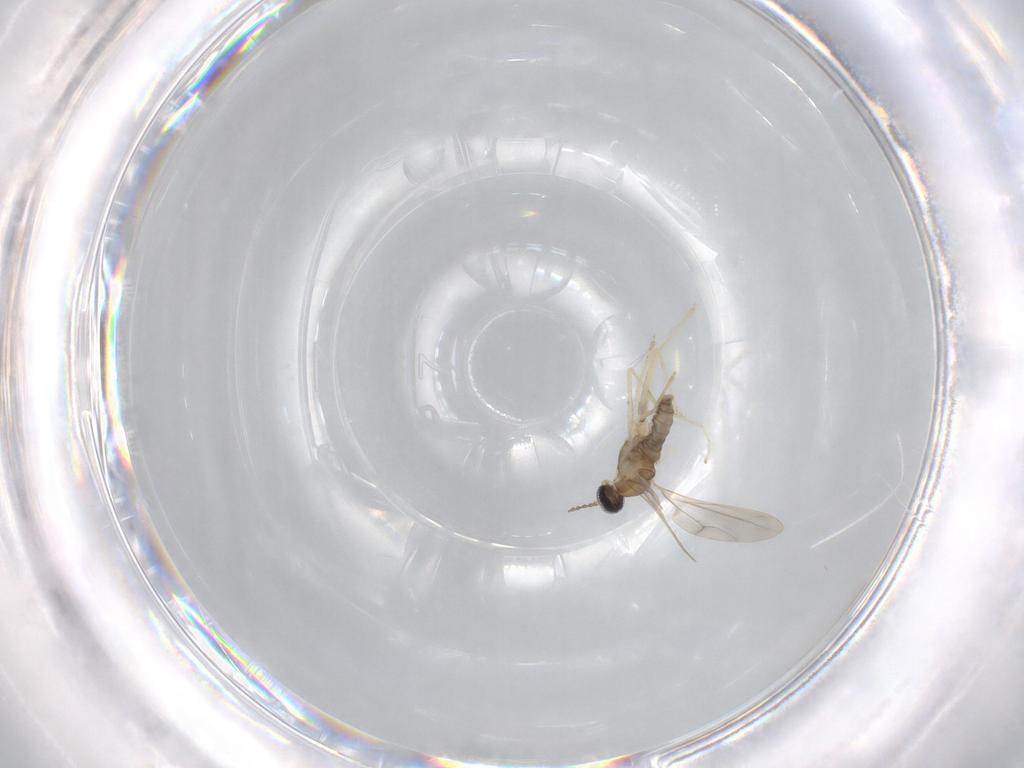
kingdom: Animalia
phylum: Arthropoda
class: Insecta
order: Diptera
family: Cecidomyiidae
